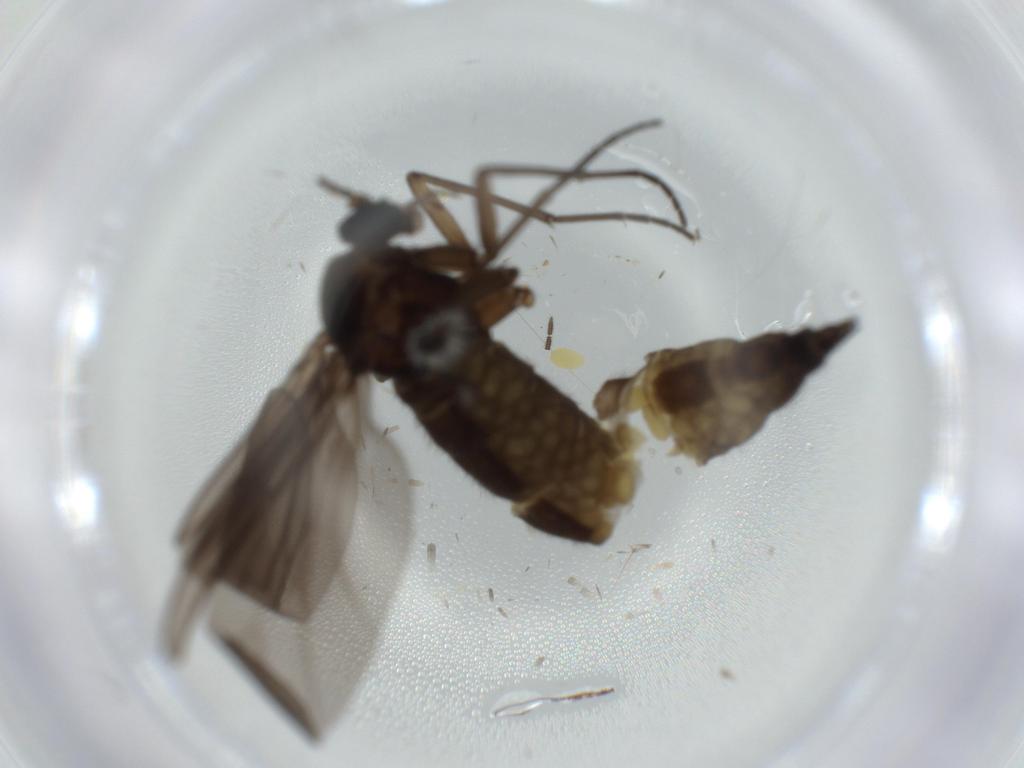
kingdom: Animalia
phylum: Arthropoda
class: Insecta
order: Diptera
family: Sciaridae
